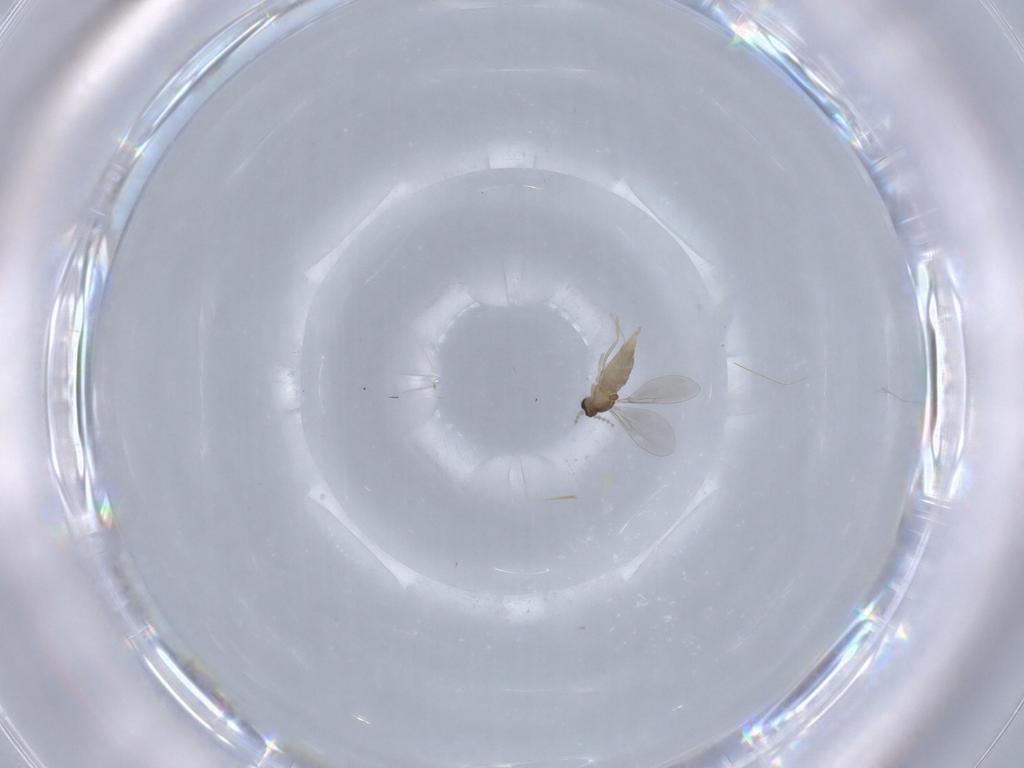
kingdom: Animalia
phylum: Arthropoda
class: Insecta
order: Diptera
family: Cecidomyiidae
